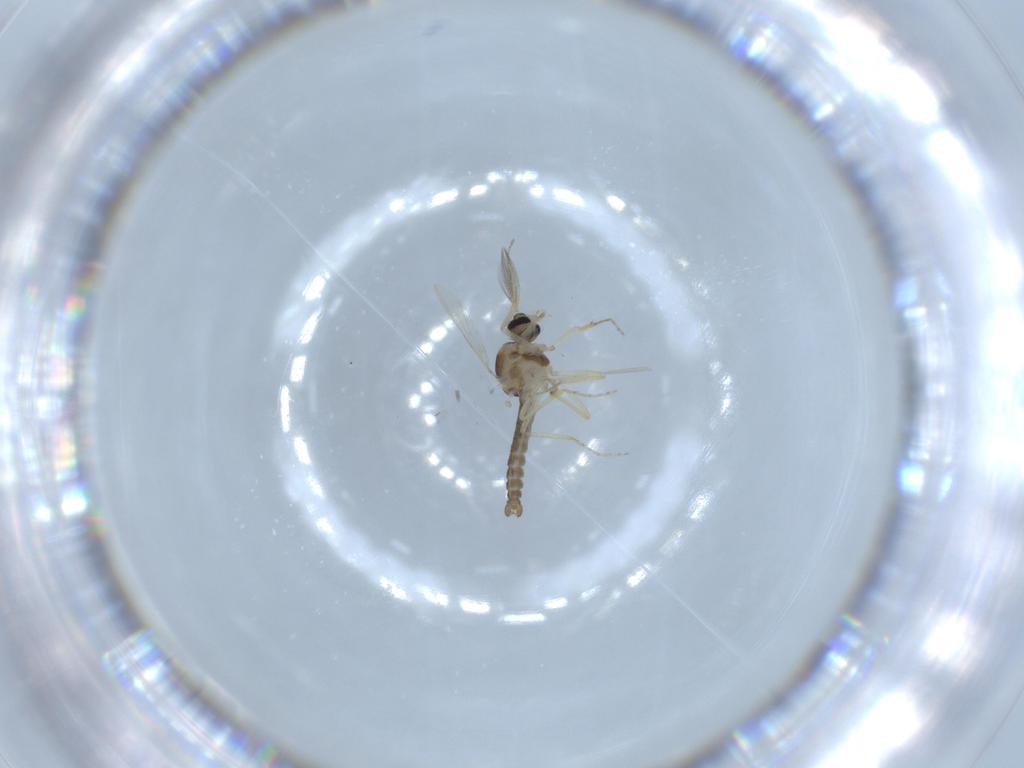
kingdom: Animalia
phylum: Arthropoda
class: Insecta
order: Diptera
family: Ceratopogonidae
